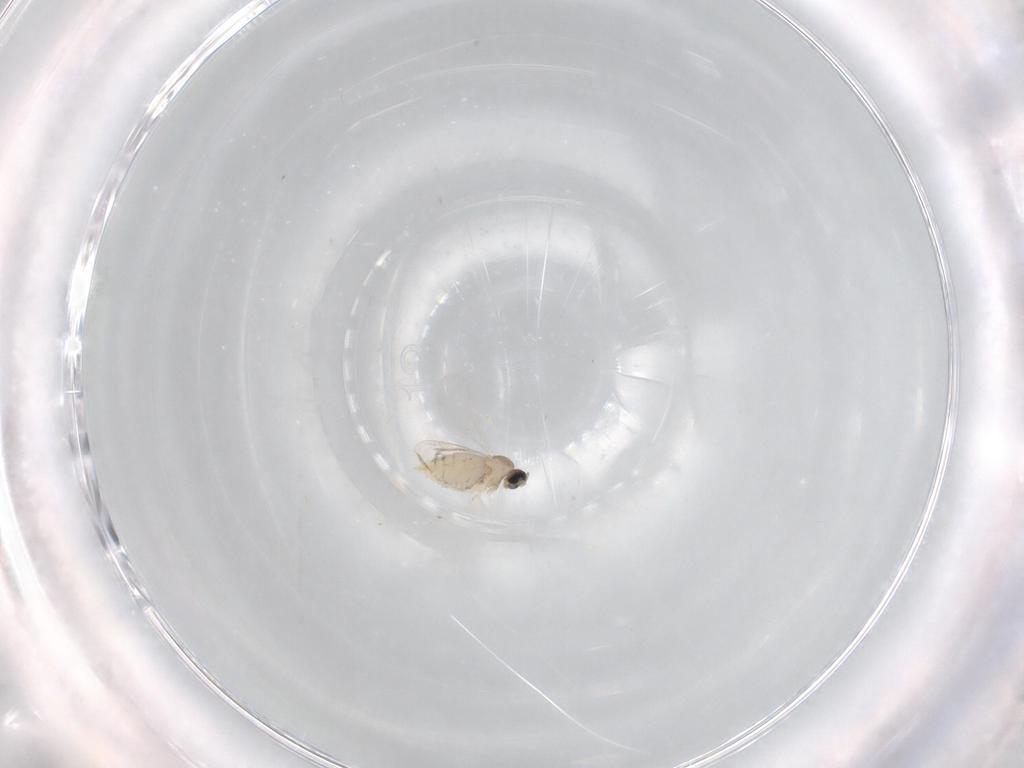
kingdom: Animalia
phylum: Arthropoda
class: Insecta
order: Diptera
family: Cecidomyiidae
